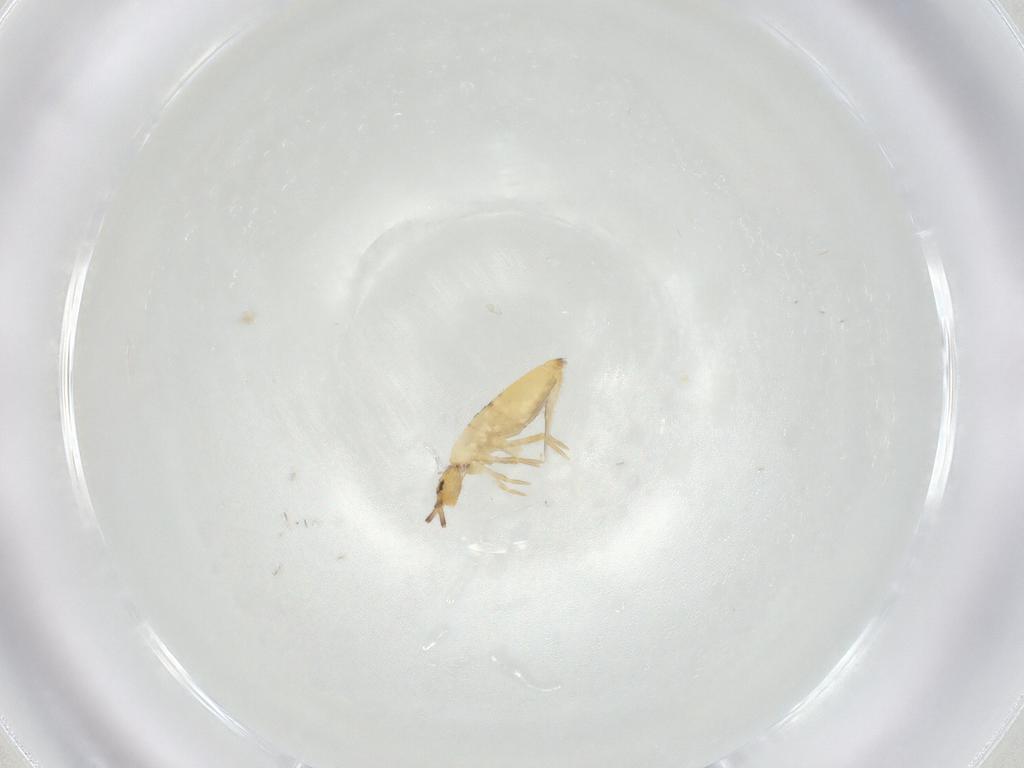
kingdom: Animalia
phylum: Arthropoda
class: Collembola
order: Entomobryomorpha
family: Entomobryidae
